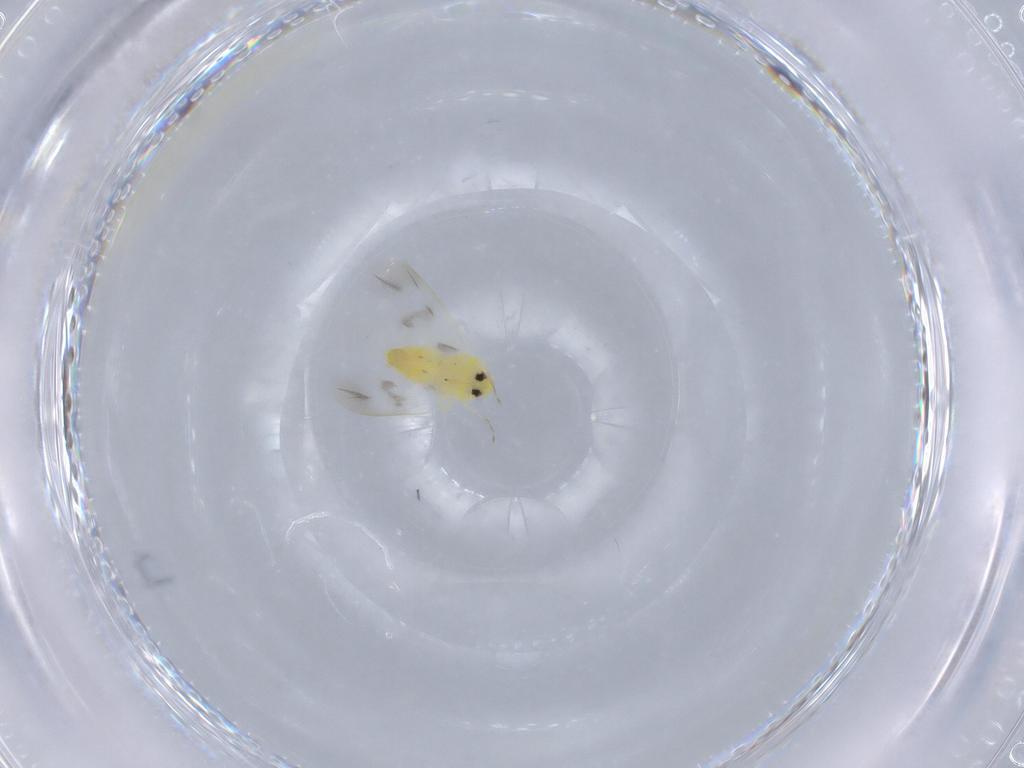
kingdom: Animalia
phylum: Arthropoda
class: Insecta
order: Hemiptera
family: Aleyrodidae
